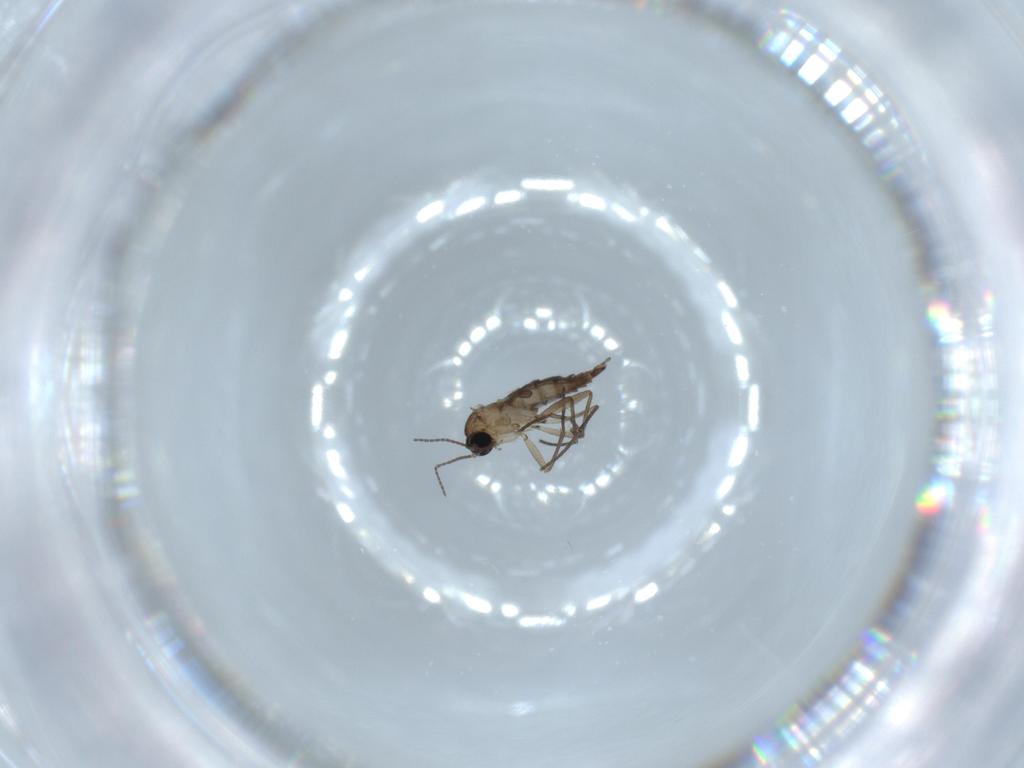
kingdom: Animalia
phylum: Arthropoda
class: Insecta
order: Diptera
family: Sciaridae
